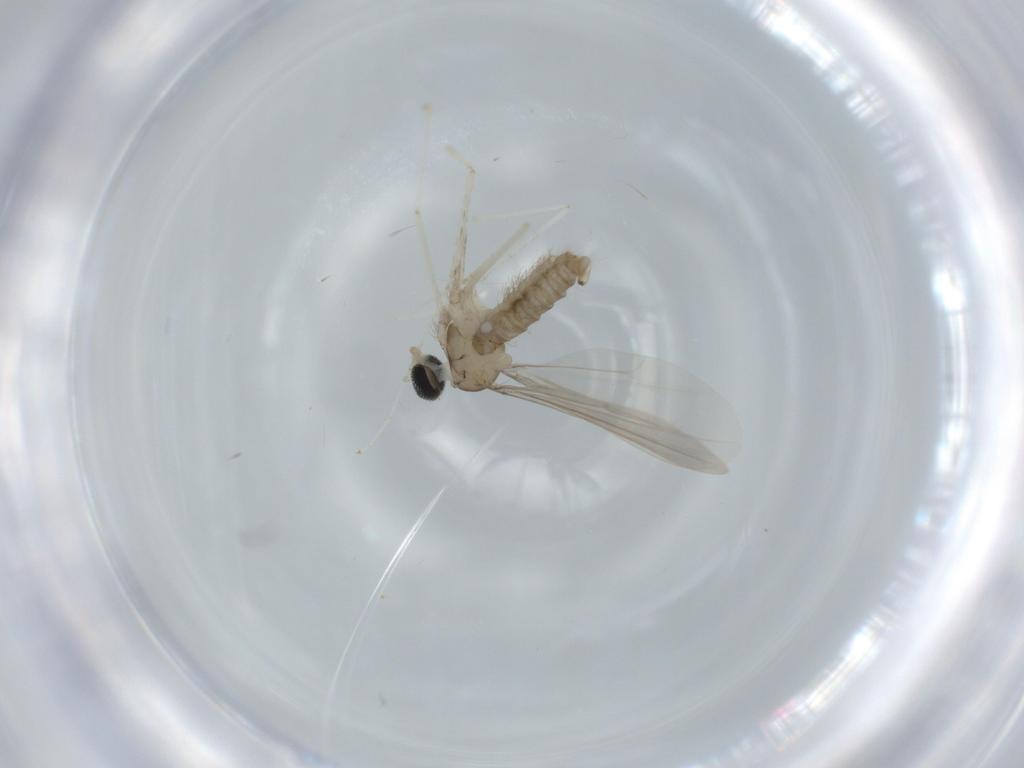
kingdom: Animalia
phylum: Arthropoda
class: Insecta
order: Diptera
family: Cecidomyiidae
